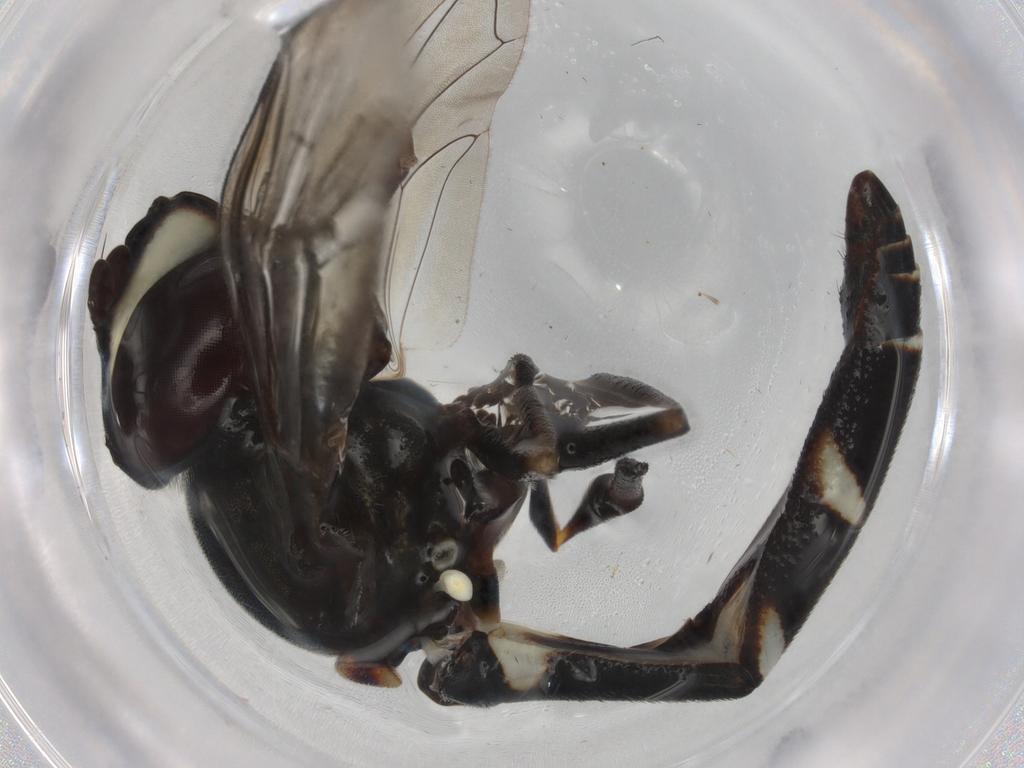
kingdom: Animalia
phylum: Arthropoda
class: Insecta
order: Diptera
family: Syrphidae
